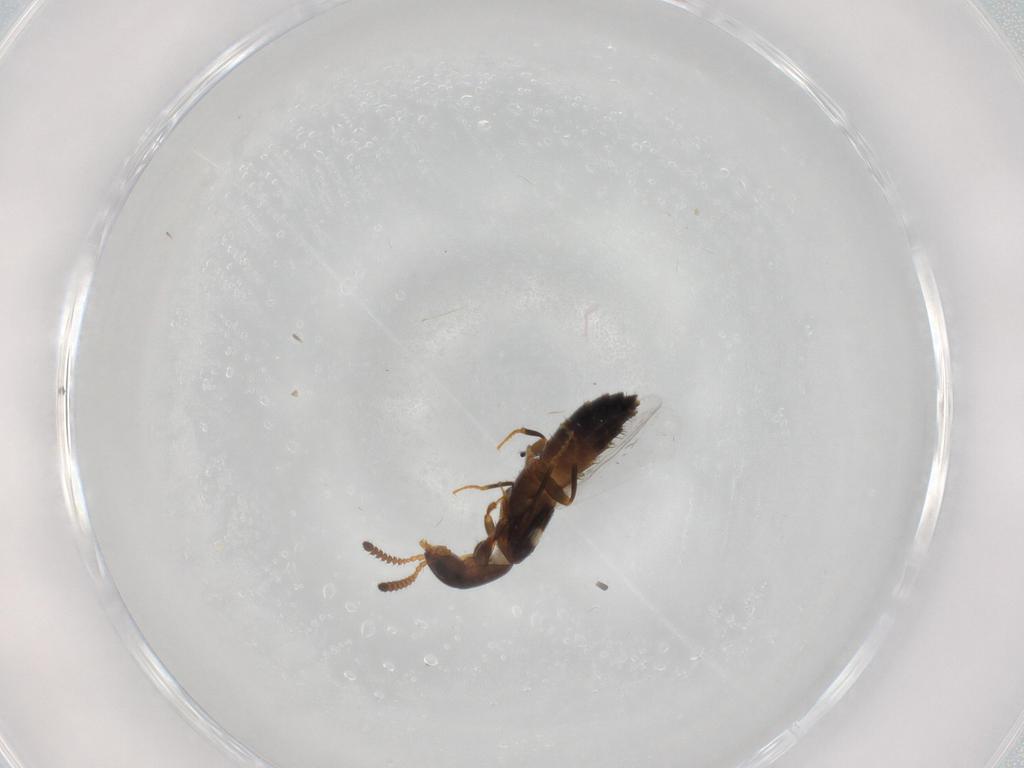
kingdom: Animalia
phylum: Arthropoda
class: Insecta
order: Coleoptera
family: Staphylinidae
